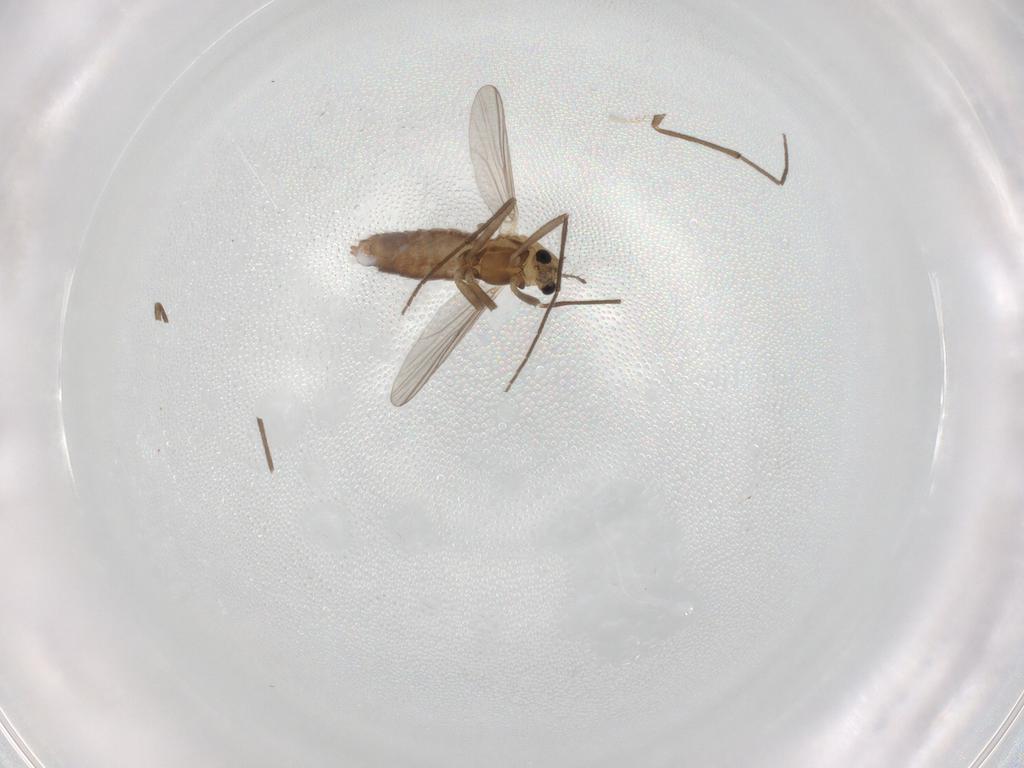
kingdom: Animalia
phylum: Arthropoda
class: Insecta
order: Diptera
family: Chironomidae
